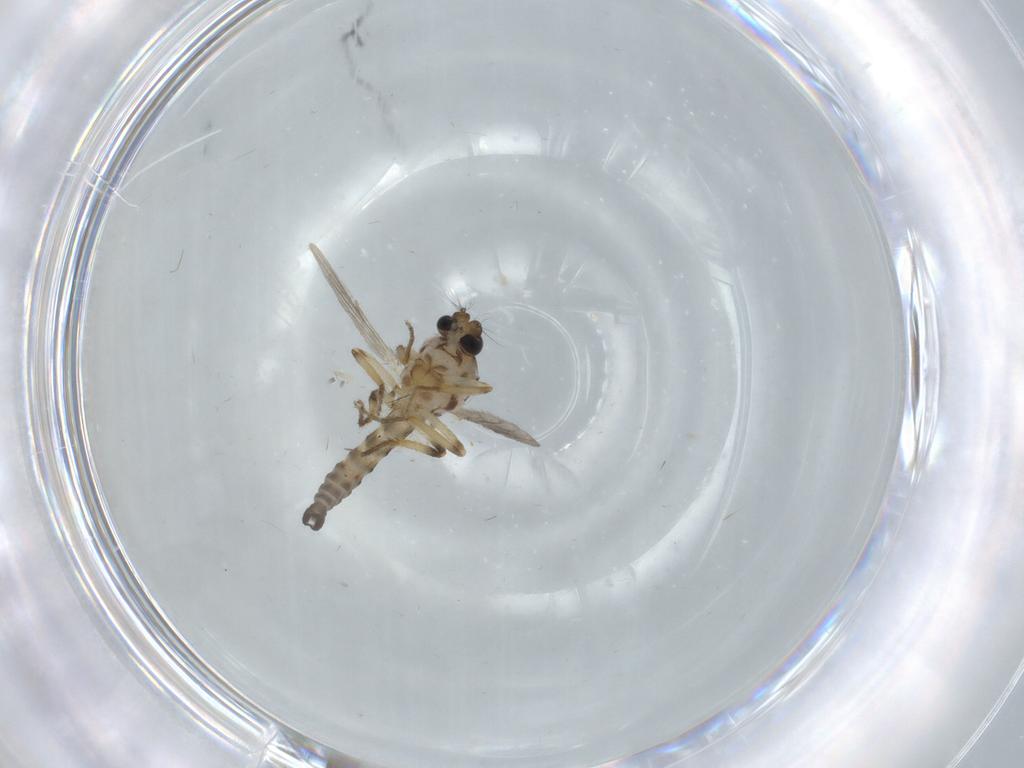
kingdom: Animalia
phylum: Arthropoda
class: Insecta
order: Diptera
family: Ceratopogonidae
